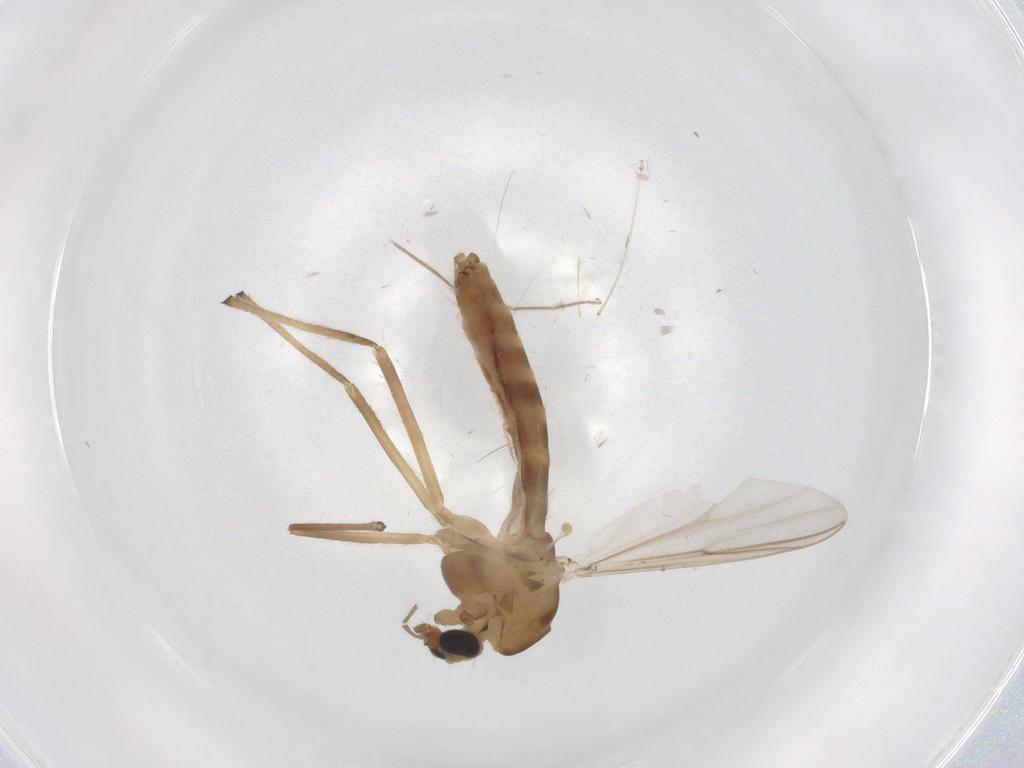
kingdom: Animalia
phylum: Arthropoda
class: Insecta
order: Diptera
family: Chironomidae
